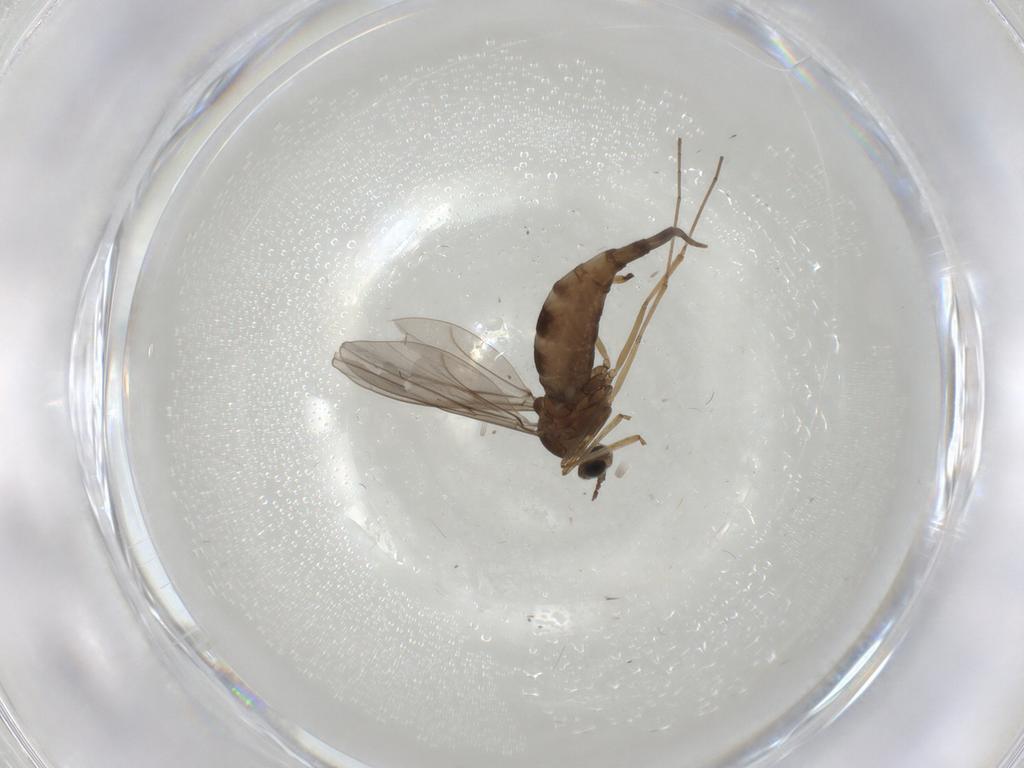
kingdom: Animalia
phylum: Arthropoda
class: Insecta
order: Diptera
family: Cecidomyiidae
